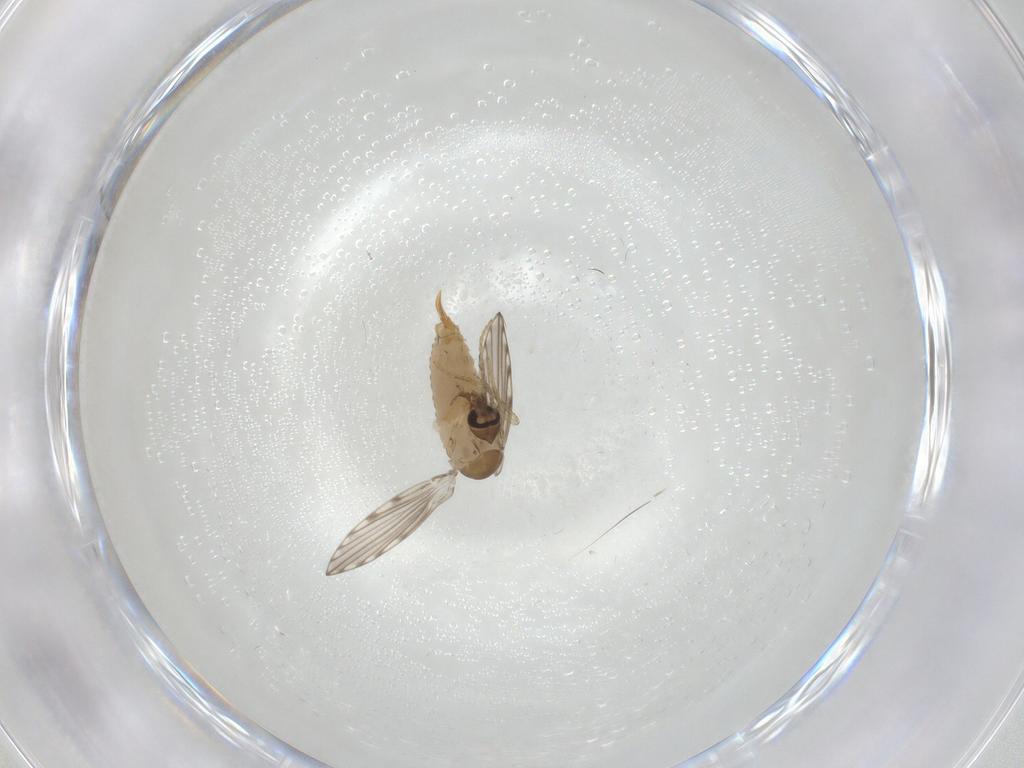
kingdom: Animalia
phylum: Arthropoda
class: Insecta
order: Diptera
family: Psychodidae
